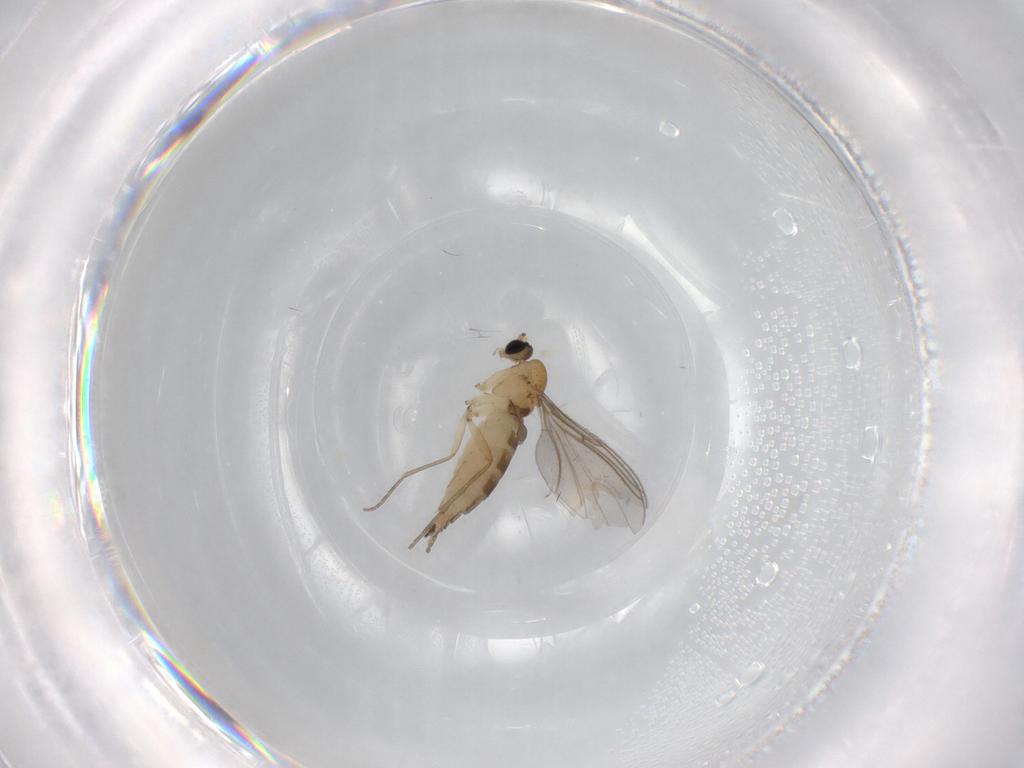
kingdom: Animalia
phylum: Arthropoda
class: Insecta
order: Diptera
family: Sciaridae
